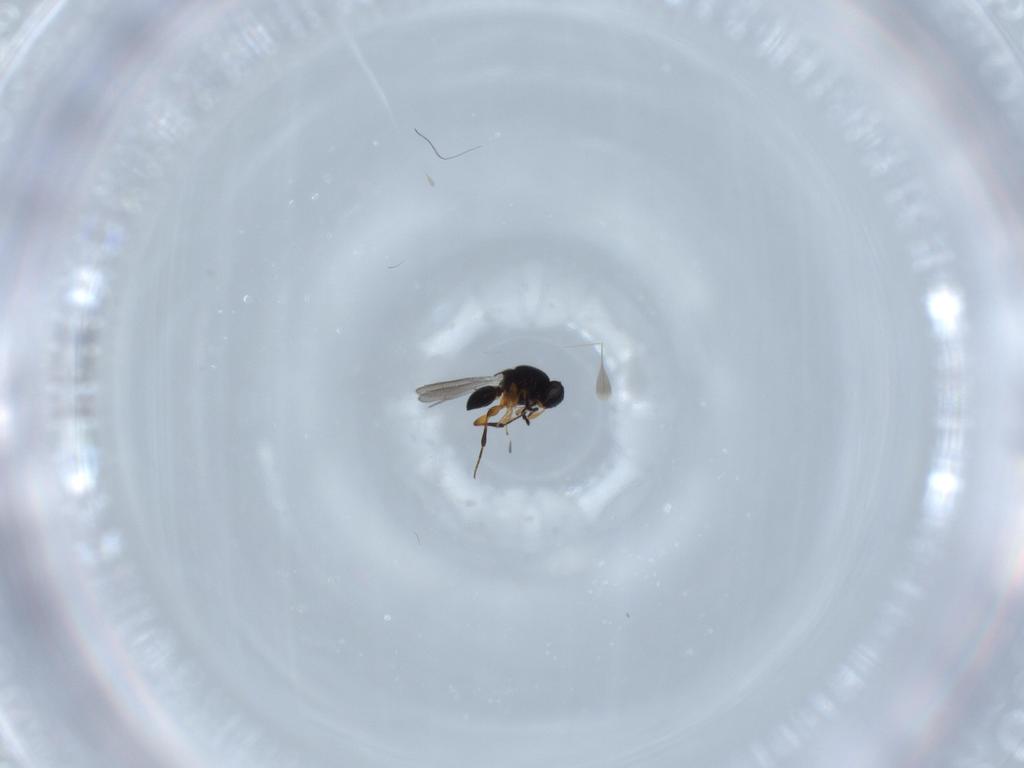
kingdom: Animalia
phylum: Arthropoda
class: Insecta
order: Hymenoptera
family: Platygastridae
